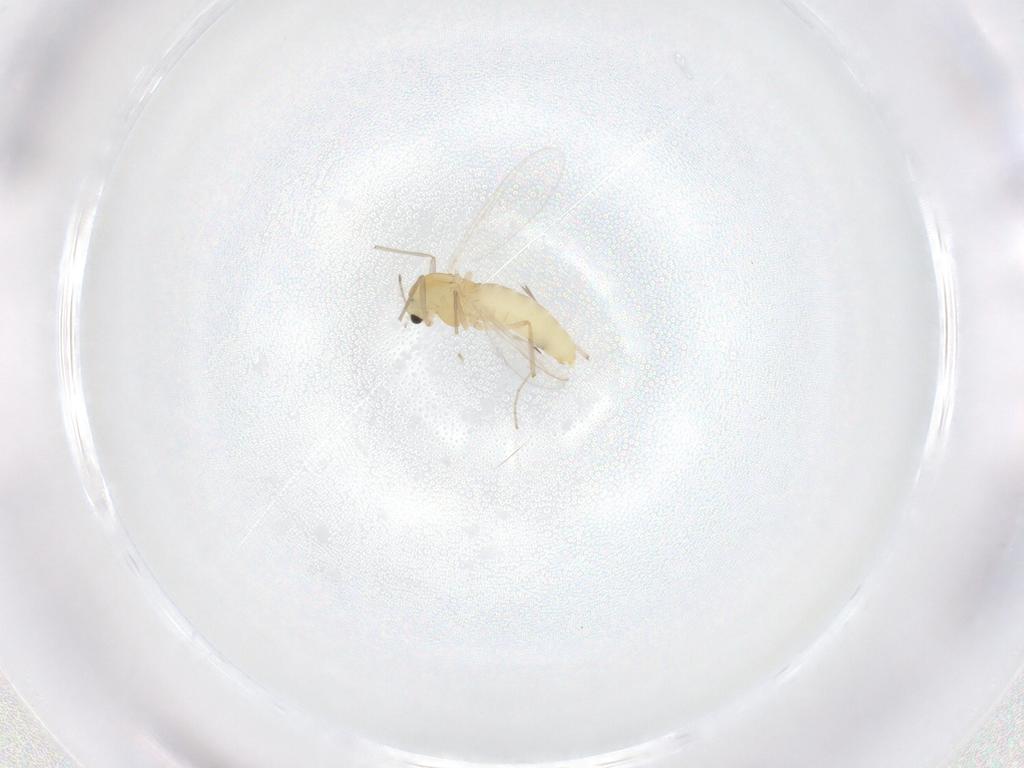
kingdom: Animalia
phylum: Arthropoda
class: Insecta
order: Diptera
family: Chironomidae
